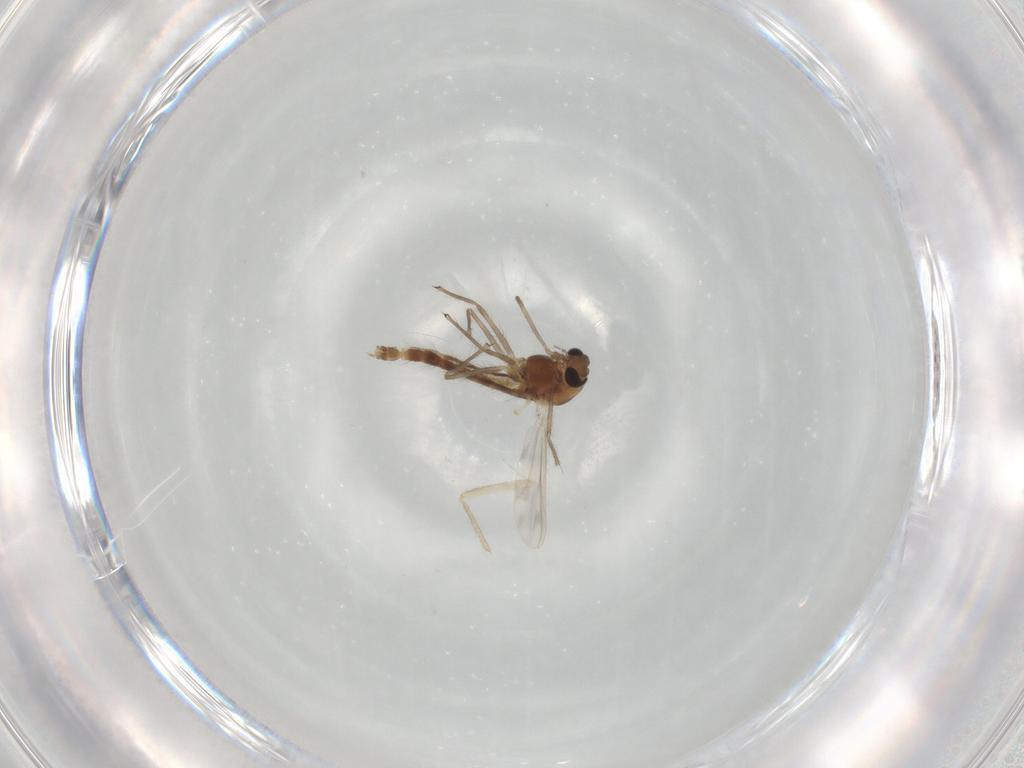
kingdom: Animalia
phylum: Arthropoda
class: Insecta
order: Diptera
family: Chironomidae
